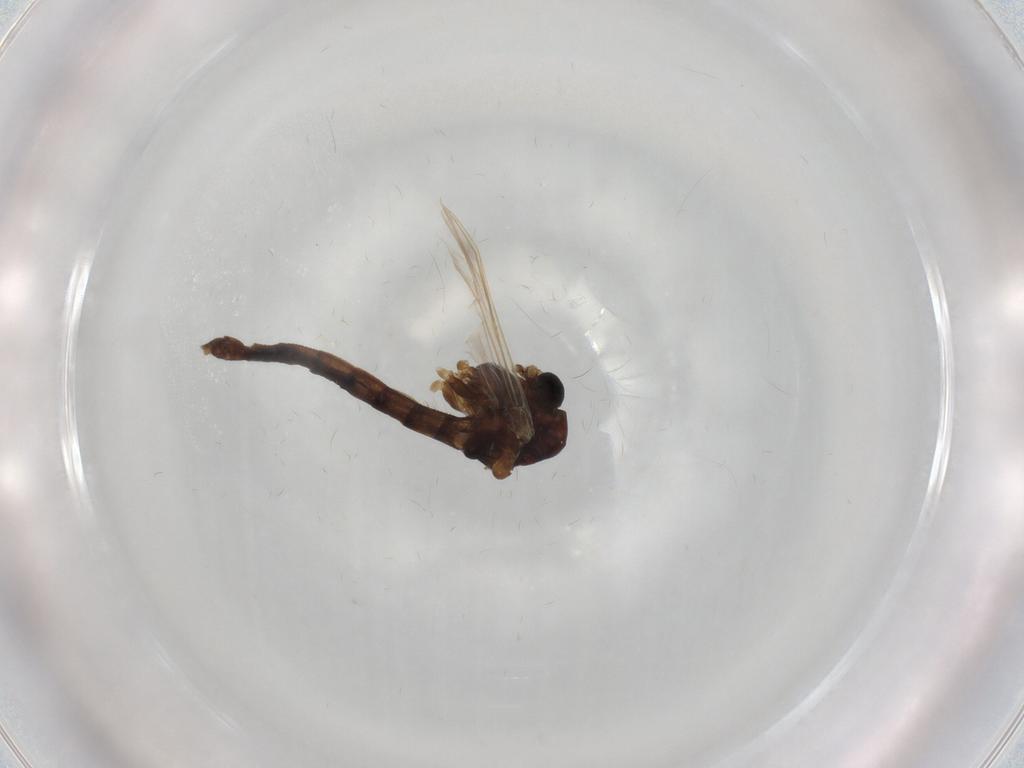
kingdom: Animalia
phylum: Arthropoda
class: Insecta
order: Diptera
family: Chironomidae
